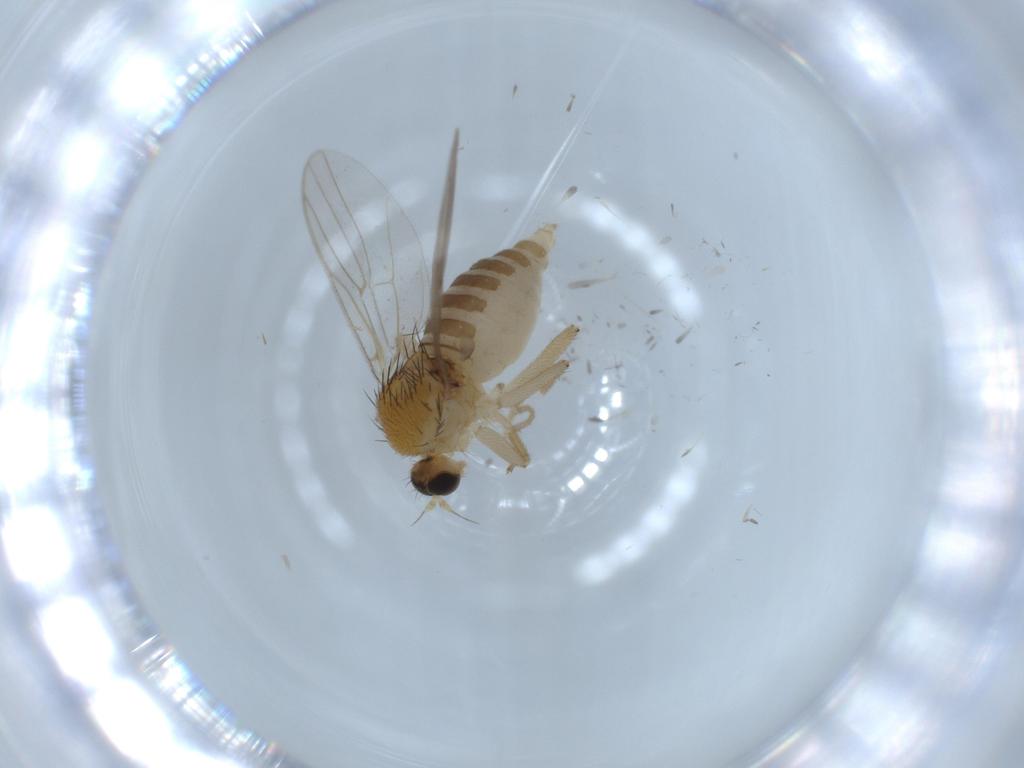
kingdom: Animalia
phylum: Arthropoda
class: Insecta
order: Diptera
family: Hybotidae
